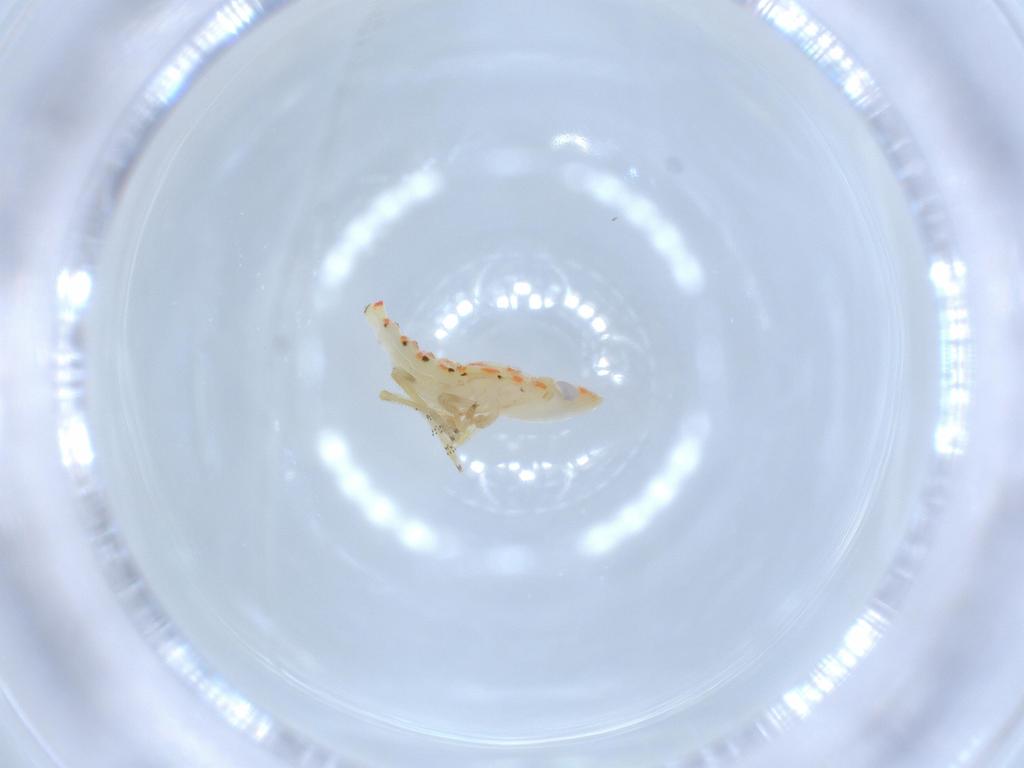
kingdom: Animalia
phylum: Arthropoda
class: Insecta
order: Hemiptera
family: Tropiduchidae
